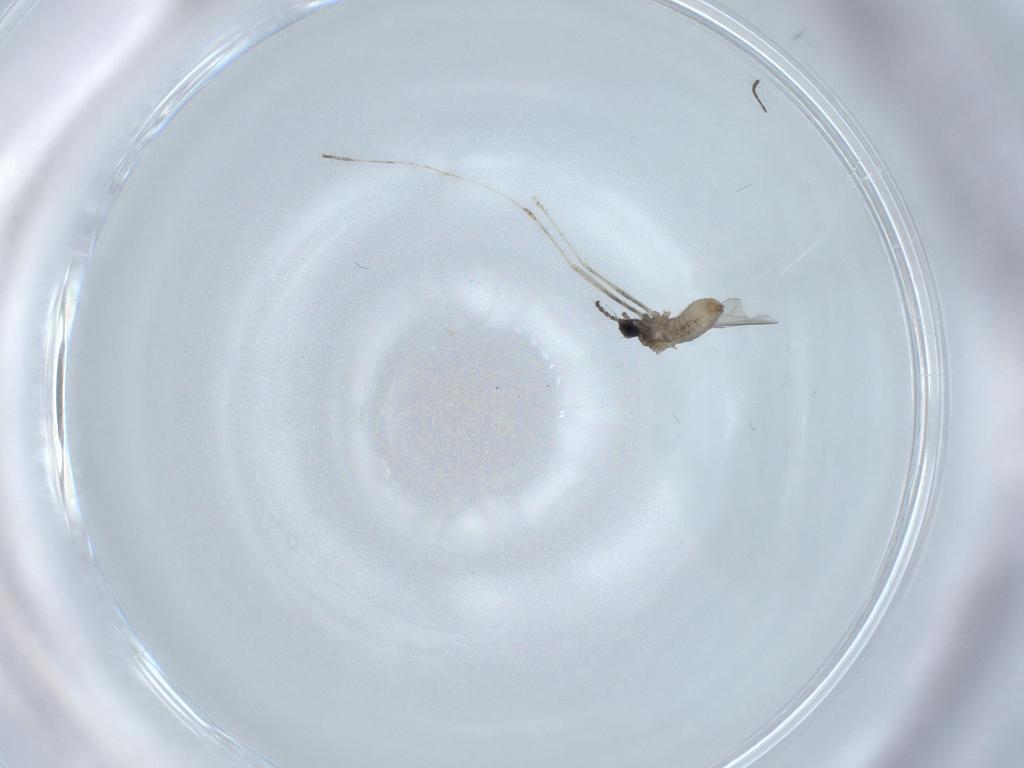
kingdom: Animalia
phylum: Arthropoda
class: Insecta
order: Diptera
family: Cecidomyiidae
